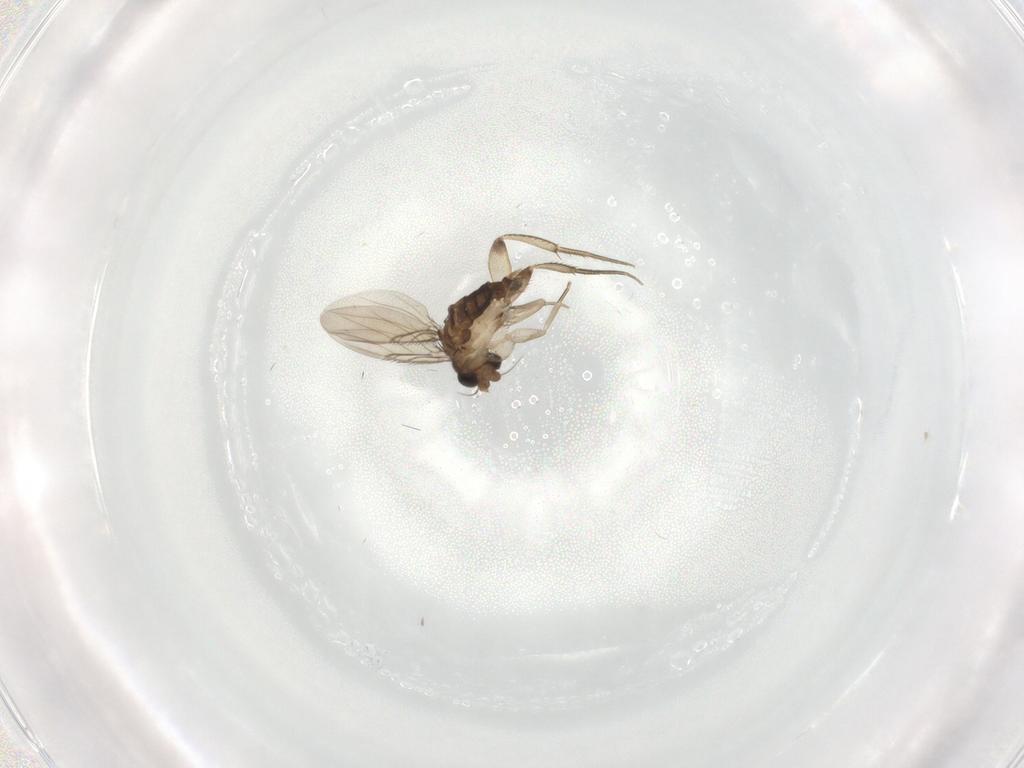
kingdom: Animalia
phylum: Arthropoda
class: Insecta
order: Diptera
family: Phoridae
